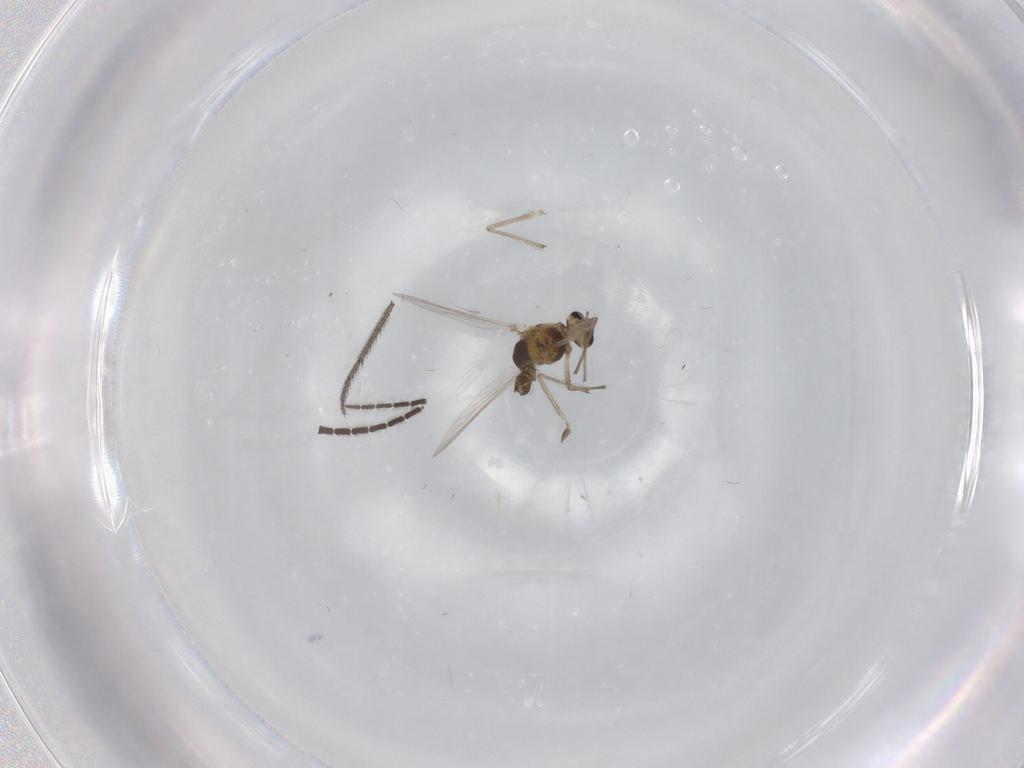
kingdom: Animalia
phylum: Arthropoda
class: Insecta
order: Diptera
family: Chironomidae
